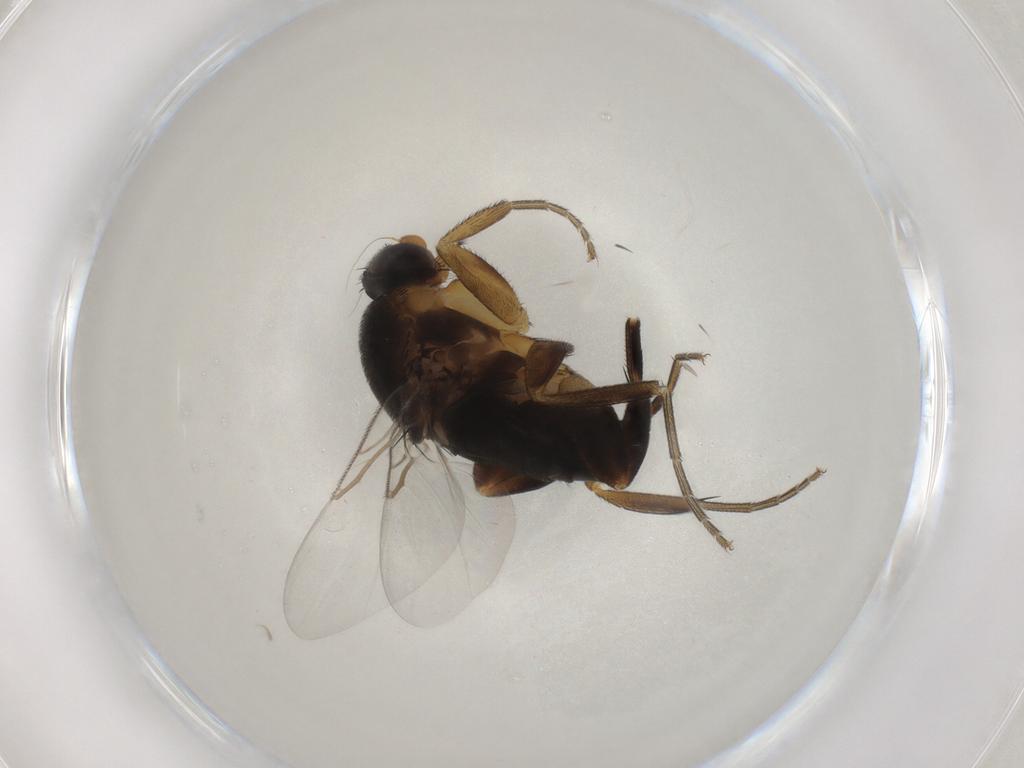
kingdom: Animalia
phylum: Arthropoda
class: Insecta
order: Diptera
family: Phoridae
